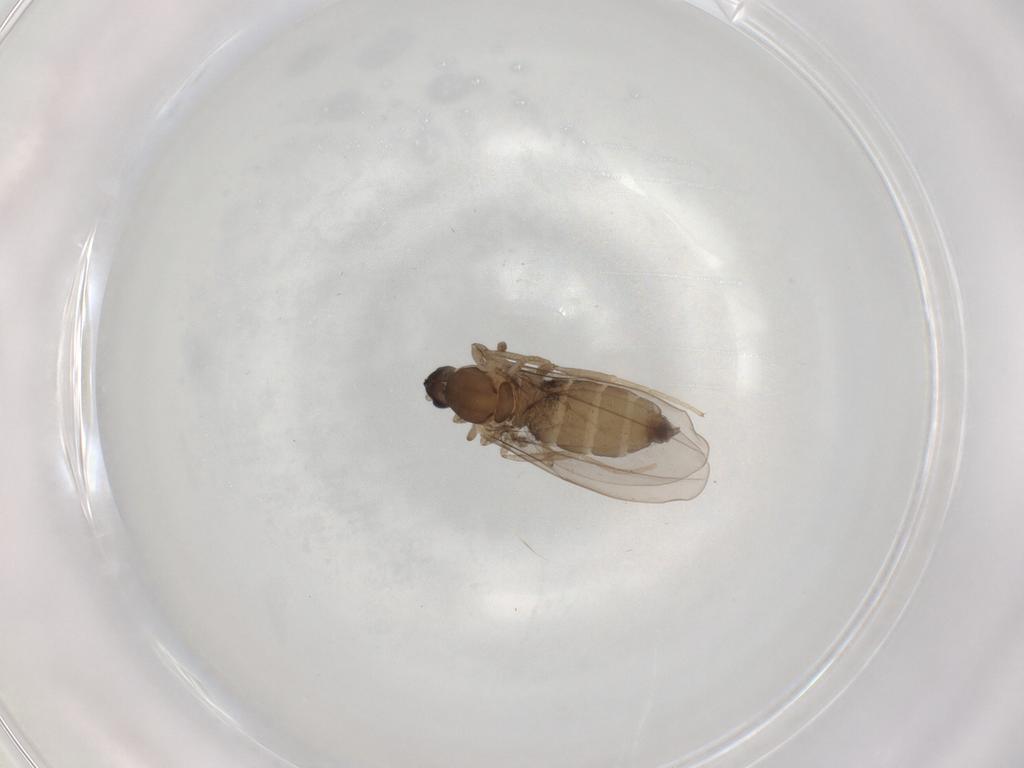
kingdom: Animalia
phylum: Arthropoda
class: Insecta
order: Diptera
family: Cecidomyiidae
